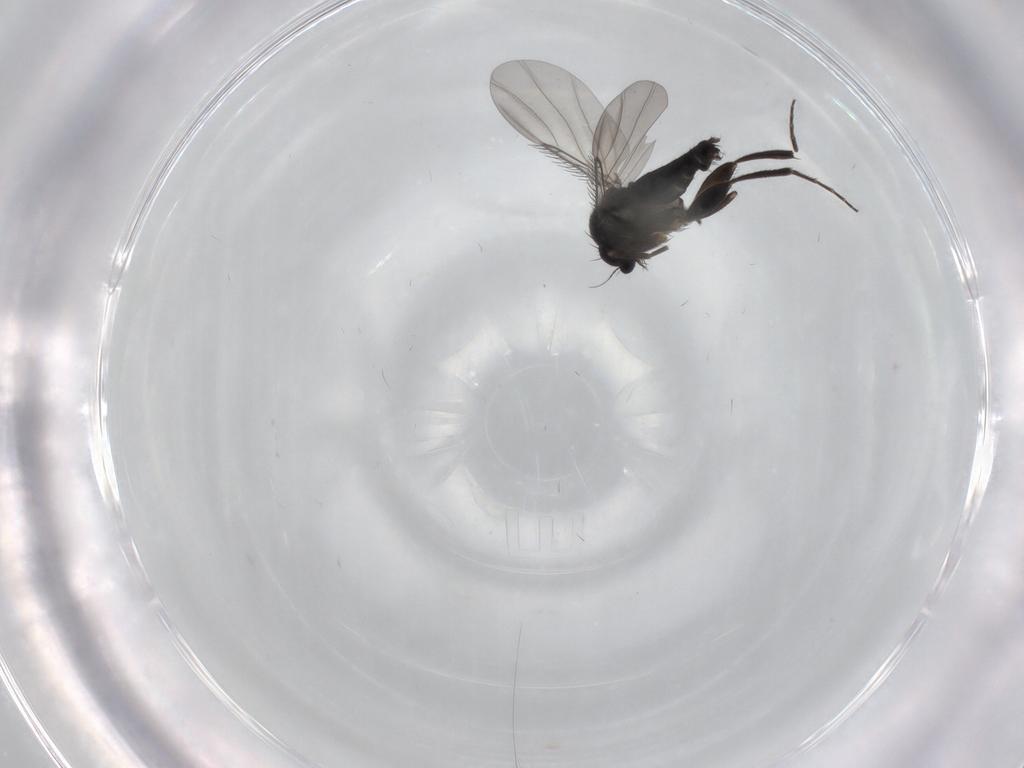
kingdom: Animalia
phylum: Arthropoda
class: Insecta
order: Diptera
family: Phoridae
